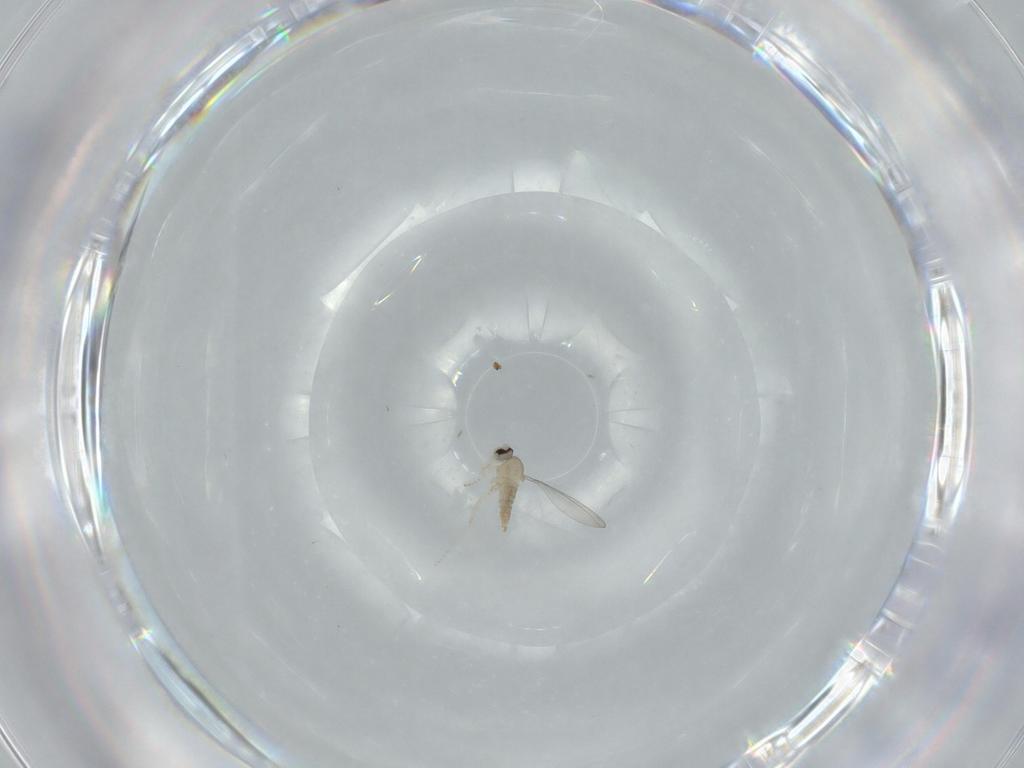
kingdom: Animalia
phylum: Arthropoda
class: Insecta
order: Diptera
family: Cecidomyiidae
